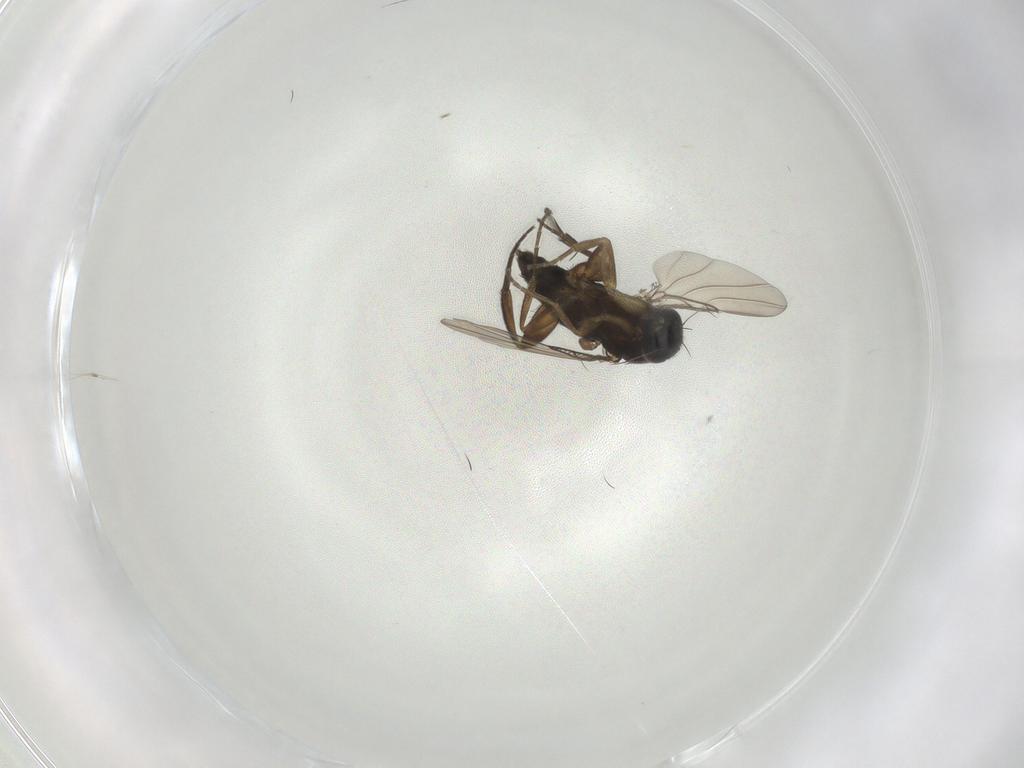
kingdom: Animalia
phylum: Arthropoda
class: Insecta
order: Diptera
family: Phoridae
